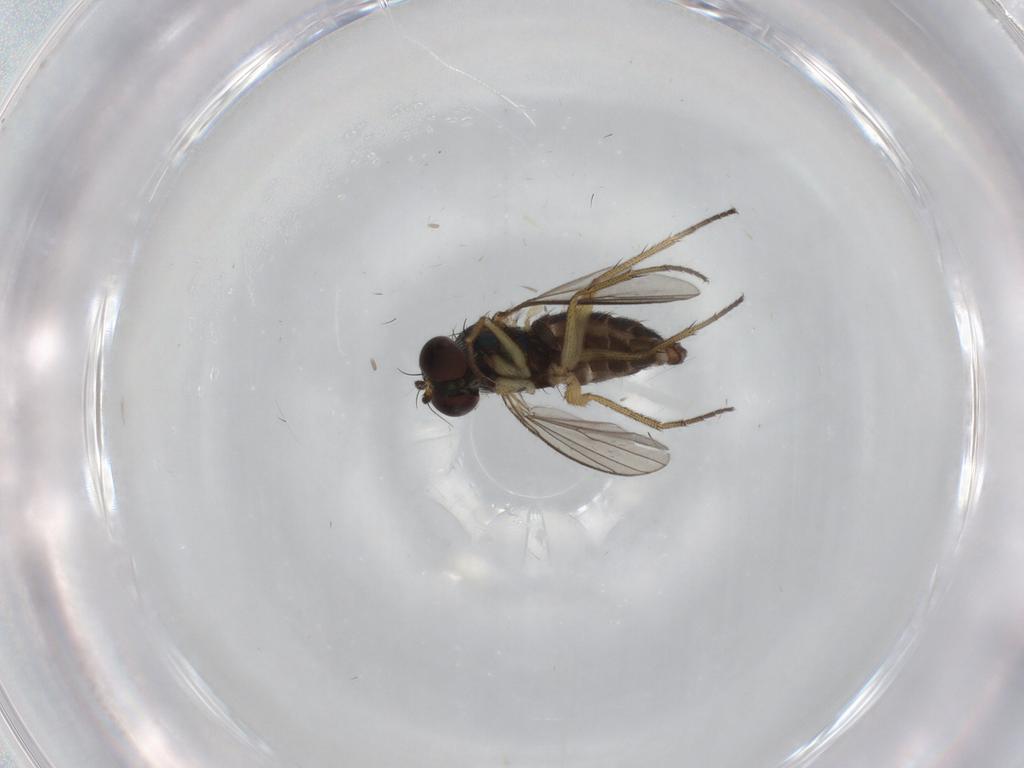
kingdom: Animalia
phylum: Arthropoda
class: Insecta
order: Diptera
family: Dolichopodidae
